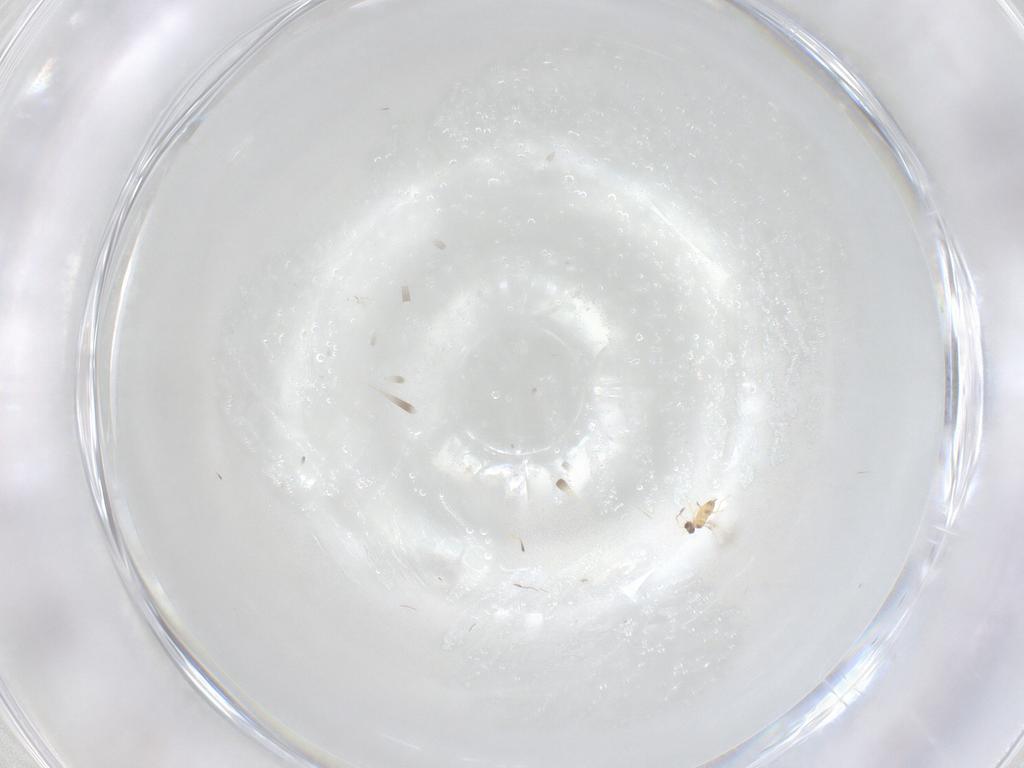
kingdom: Animalia
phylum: Arthropoda
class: Insecta
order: Hymenoptera
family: Mymaridae
